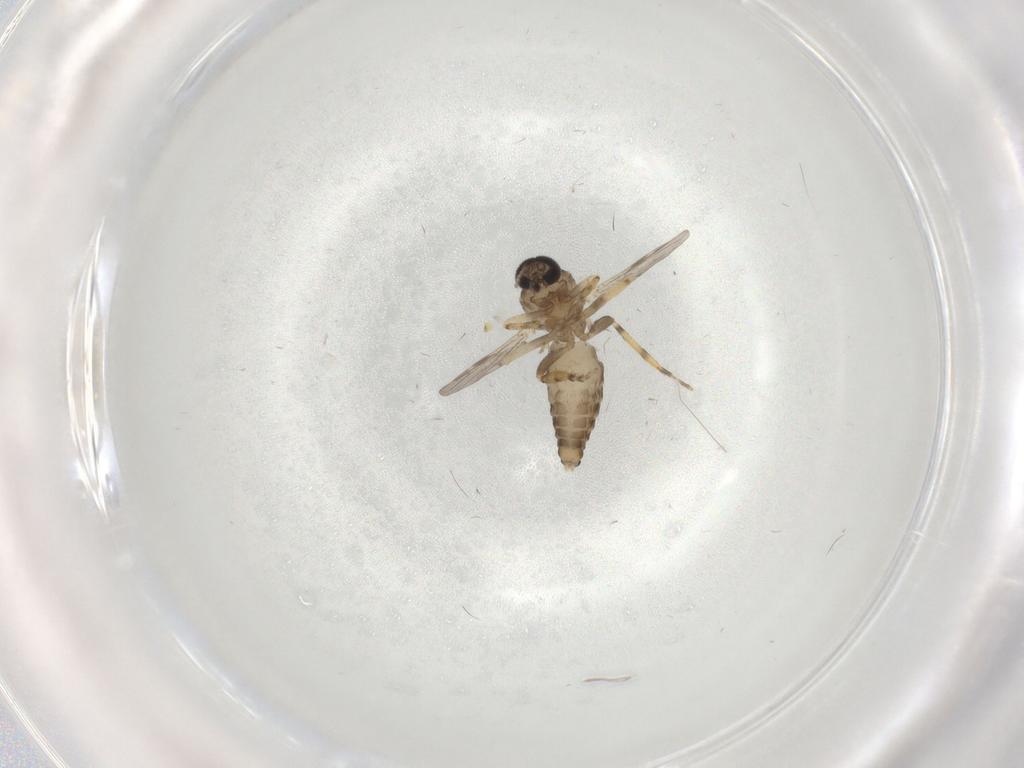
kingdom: Animalia
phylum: Arthropoda
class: Insecta
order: Diptera
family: Ceratopogonidae
